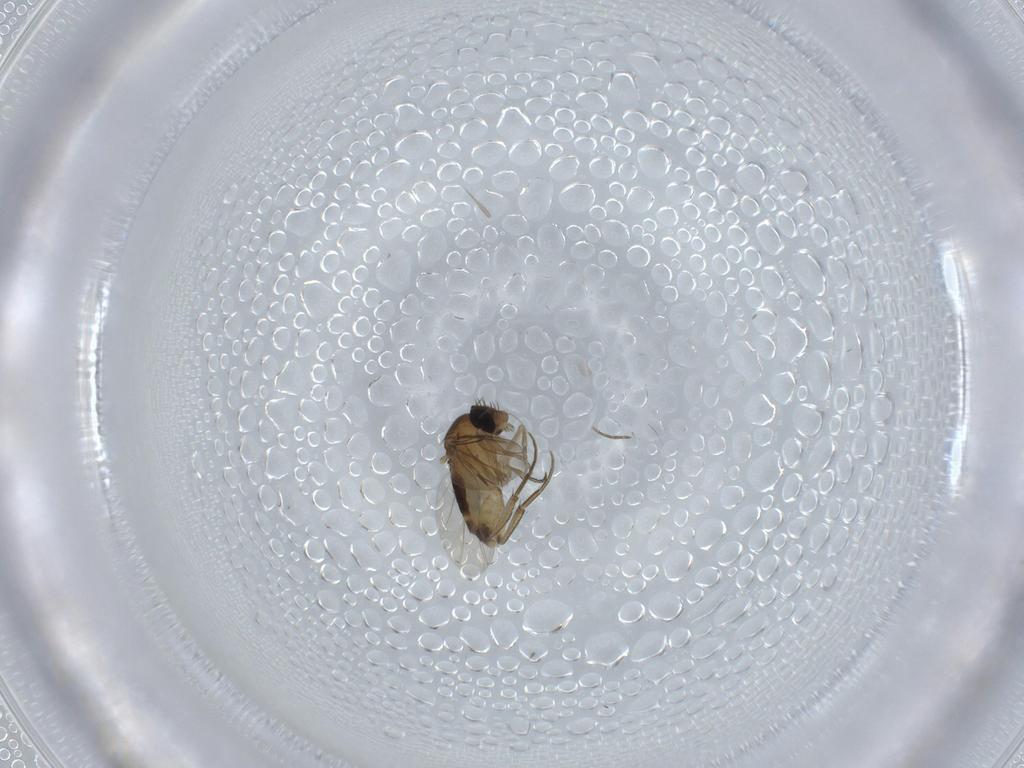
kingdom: Animalia
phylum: Arthropoda
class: Insecta
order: Diptera
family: Phoridae
